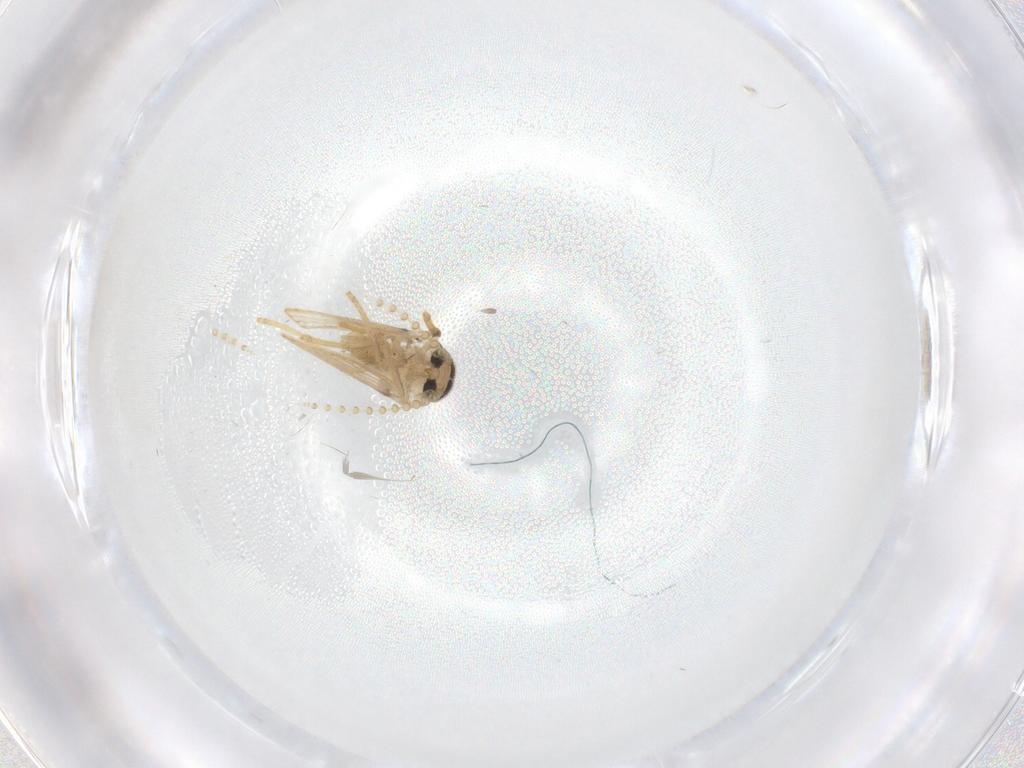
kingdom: Animalia
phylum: Arthropoda
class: Insecta
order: Diptera
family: Psychodidae
